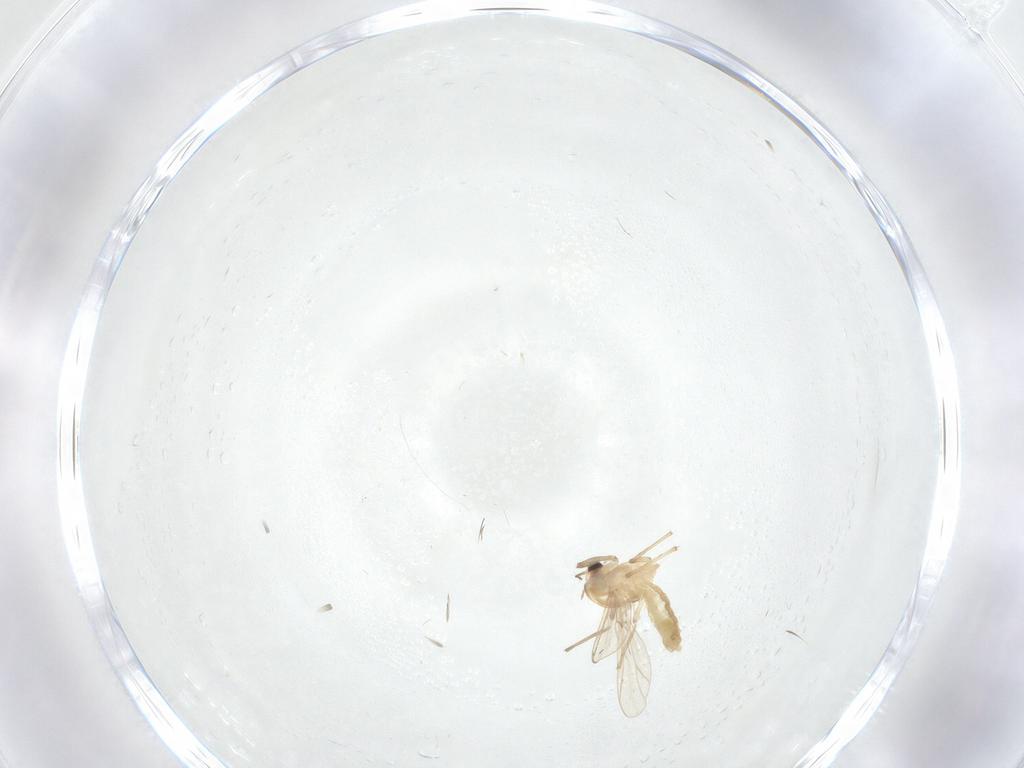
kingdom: Animalia
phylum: Arthropoda
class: Insecta
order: Diptera
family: Chironomidae
